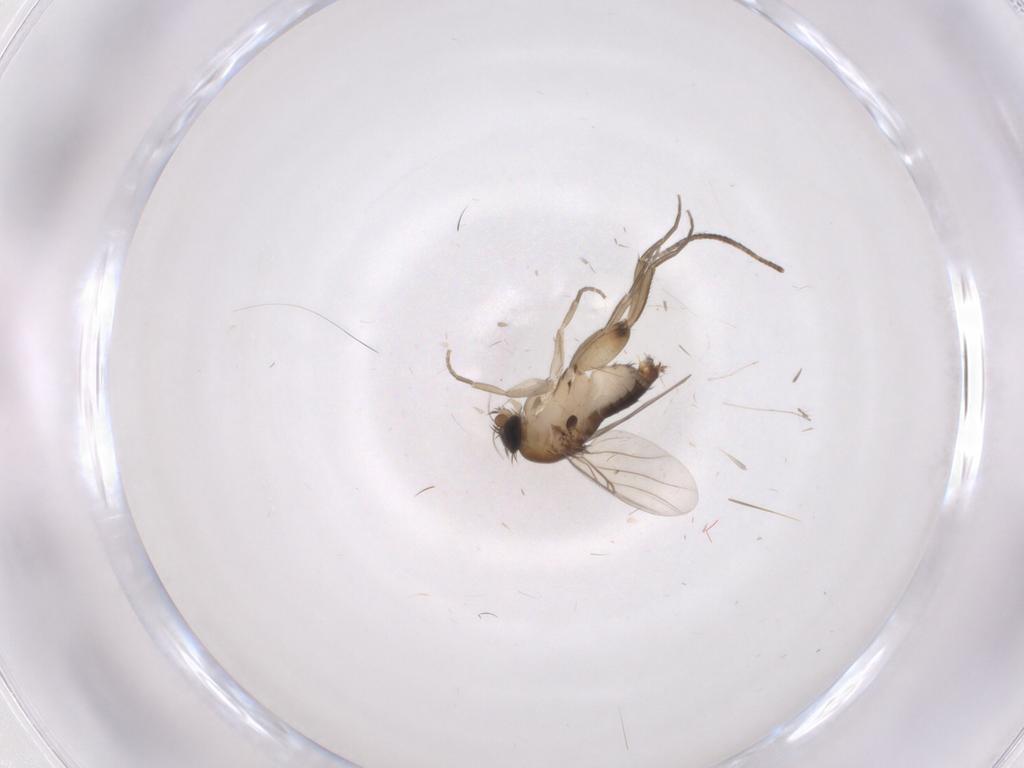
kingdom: Animalia
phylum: Arthropoda
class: Insecta
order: Diptera
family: Phoridae
